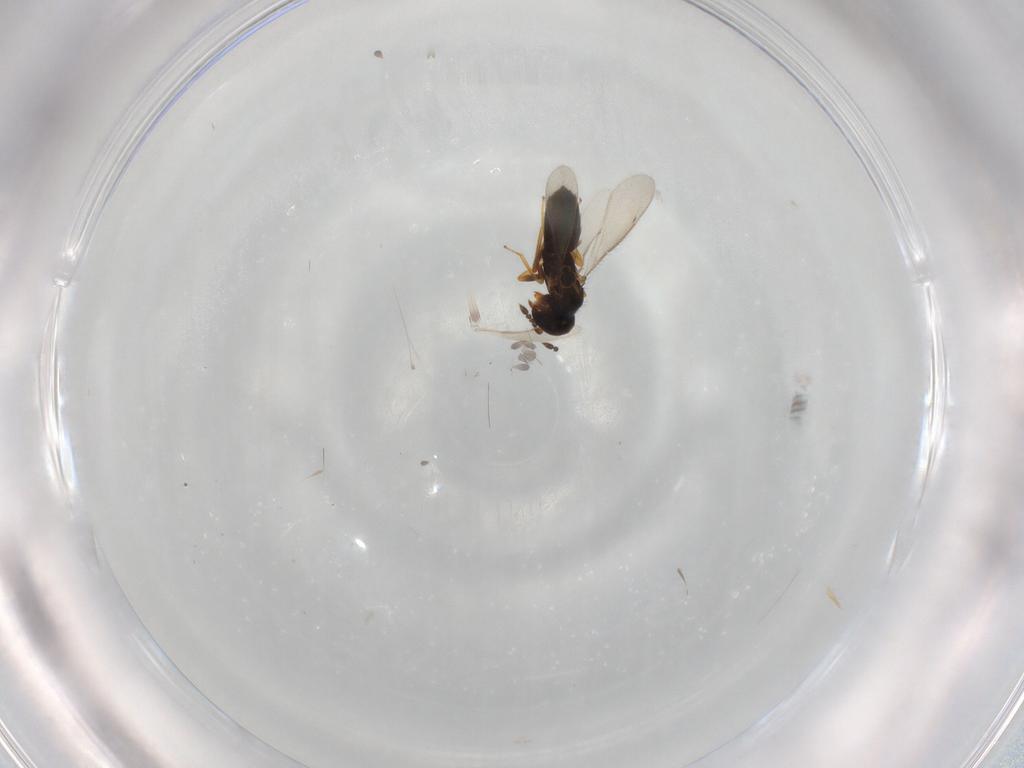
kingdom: Animalia
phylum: Arthropoda
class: Insecta
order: Hymenoptera
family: Eulophidae
